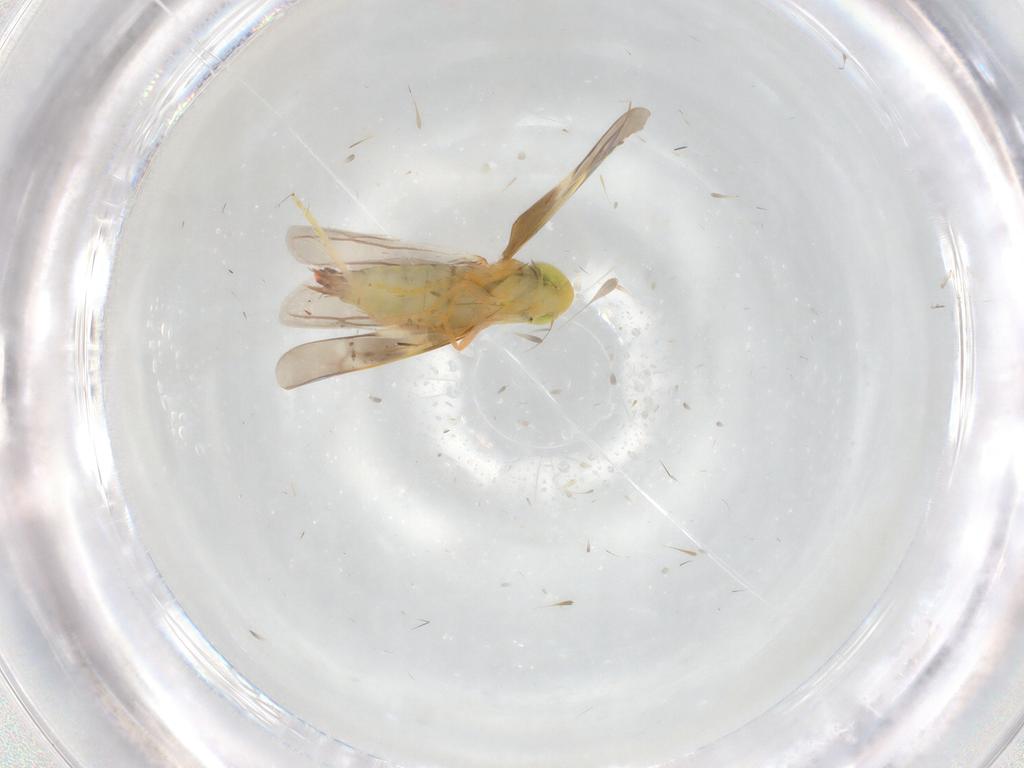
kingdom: Animalia
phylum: Arthropoda
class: Insecta
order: Hemiptera
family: Cicadellidae
